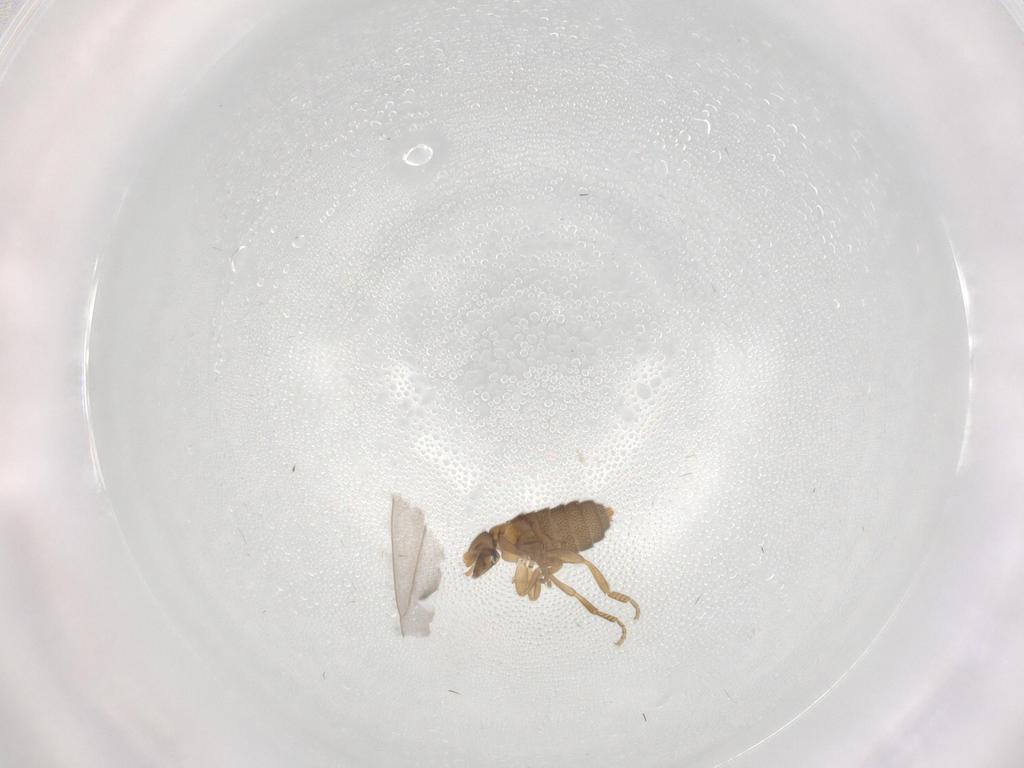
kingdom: Animalia
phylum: Arthropoda
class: Insecta
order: Diptera
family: Phoridae
